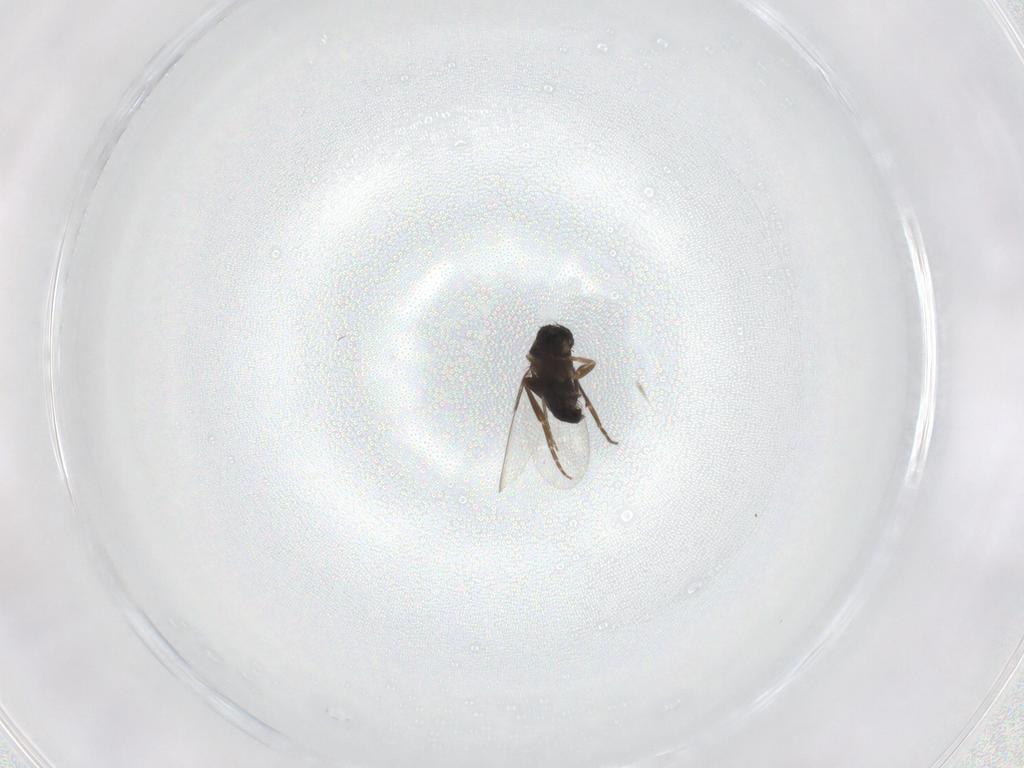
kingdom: Animalia
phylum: Arthropoda
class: Insecta
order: Diptera
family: Phoridae
